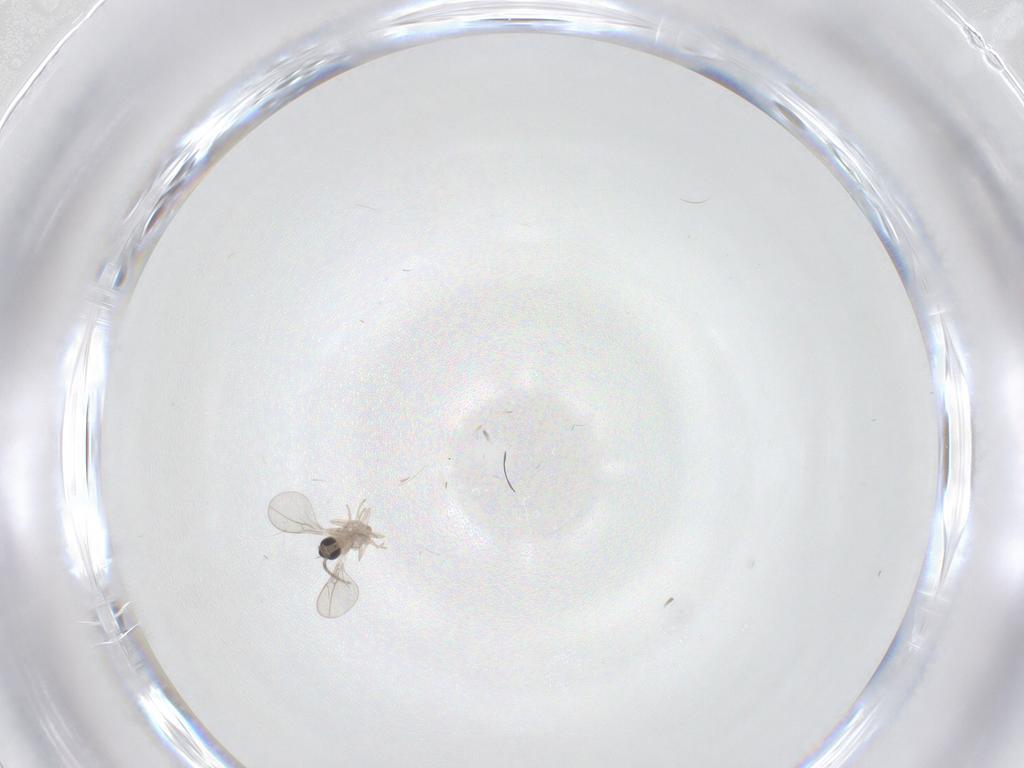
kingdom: Animalia
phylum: Arthropoda
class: Insecta
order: Diptera
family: Cecidomyiidae
